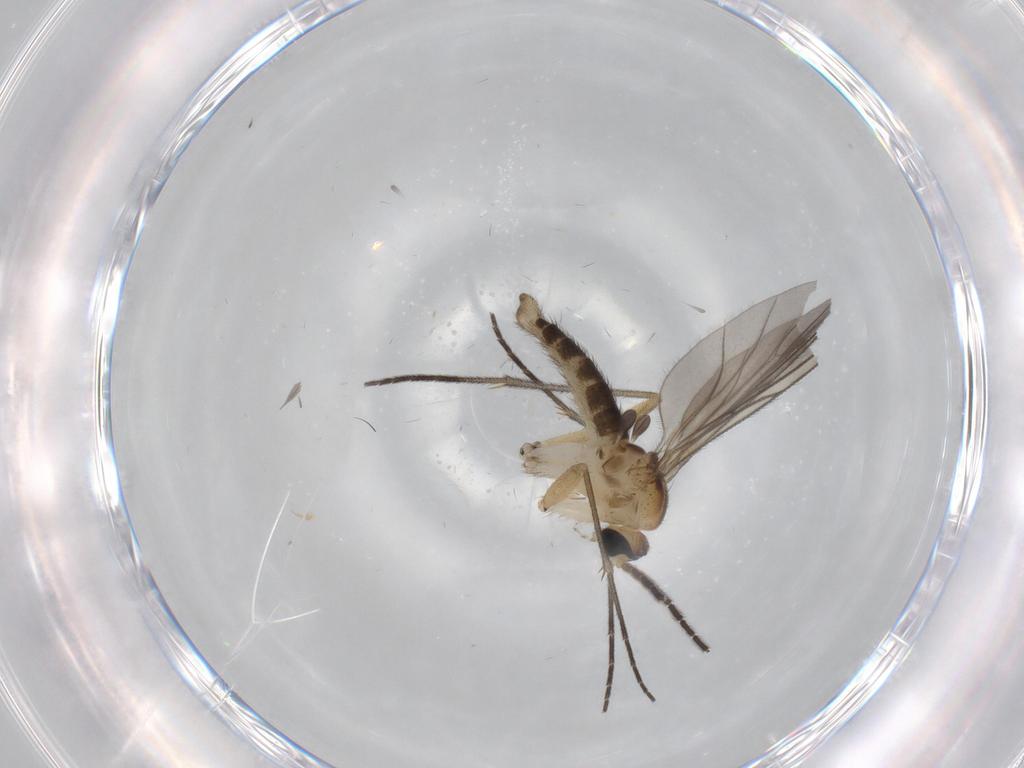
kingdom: Animalia
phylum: Arthropoda
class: Insecta
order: Diptera
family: Sciaridae
